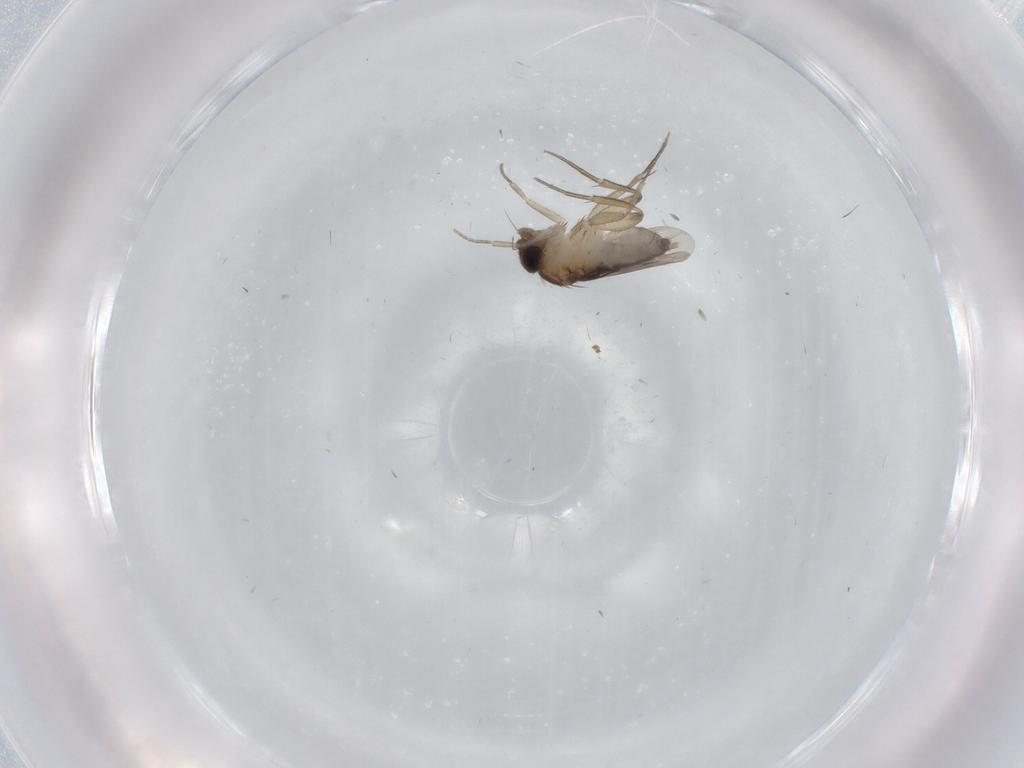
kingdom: Animalia
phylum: Arthropoda
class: Insecta
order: Diptera
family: Phoridae
